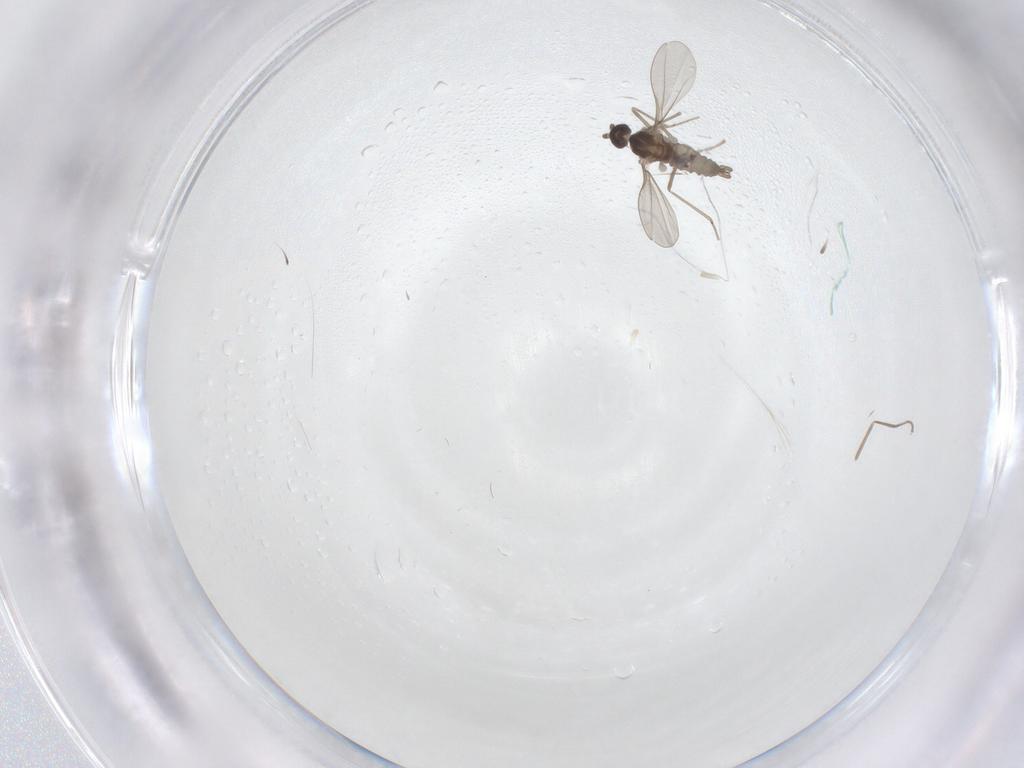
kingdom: Animalia
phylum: Arthropoda
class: Insecta
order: Diptera
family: Cecidomyiidae
